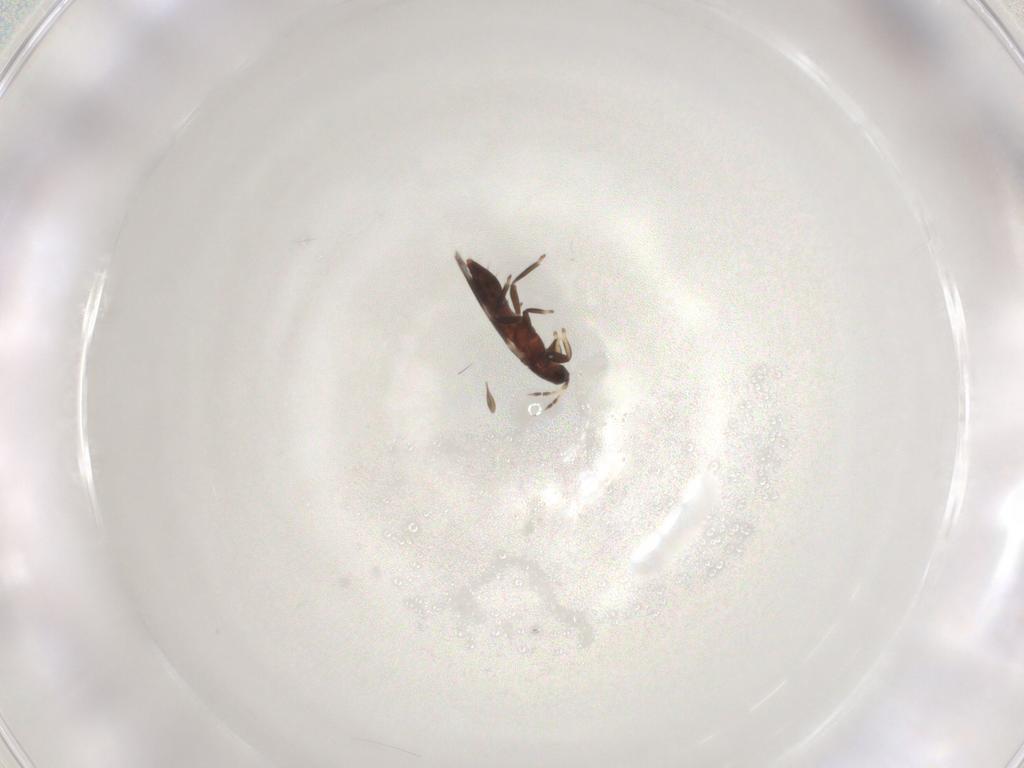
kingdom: Animalia
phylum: Arthropoda
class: Insecta
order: Thysanoptera
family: Aeolothripidae
